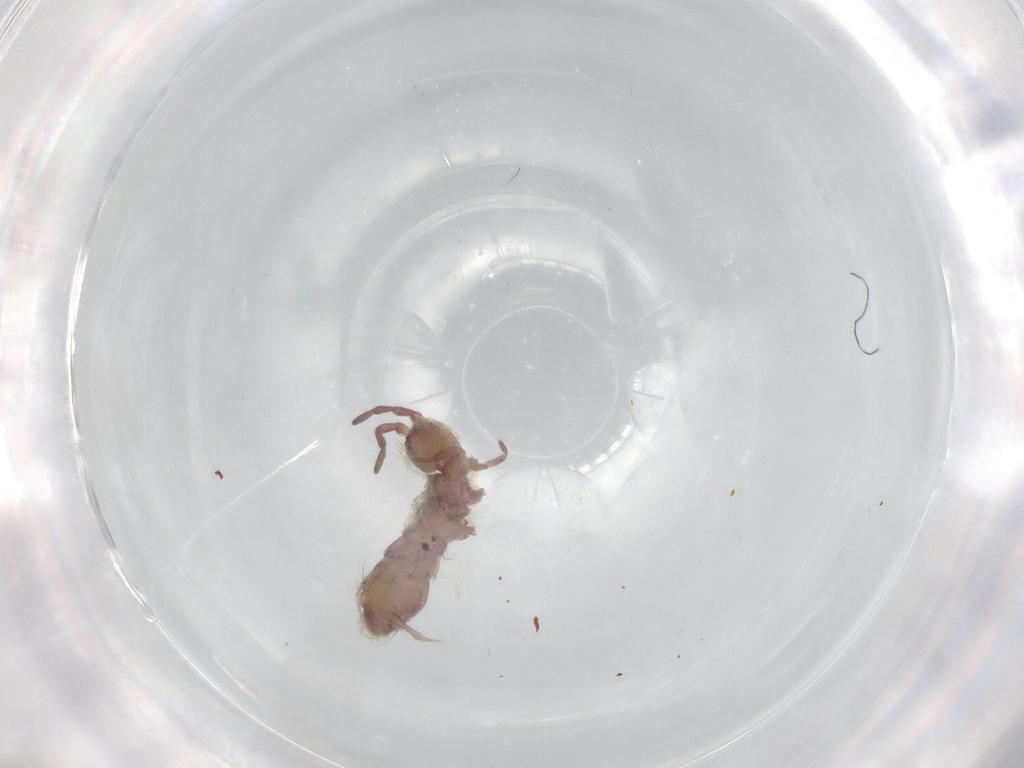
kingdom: Animalia
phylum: Arthropoda
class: Collembola
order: Entomobryomorpha
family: Isotomidae
